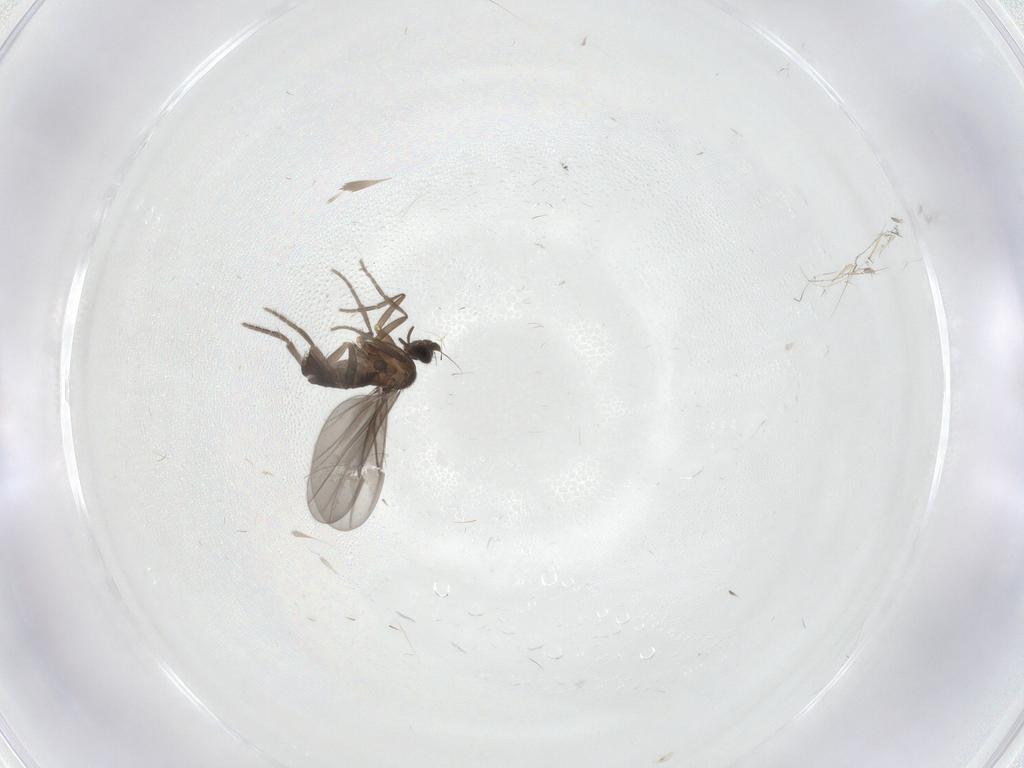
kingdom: Animalia
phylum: Arthropoda
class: Insecta
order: Diptera
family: Phoridae
